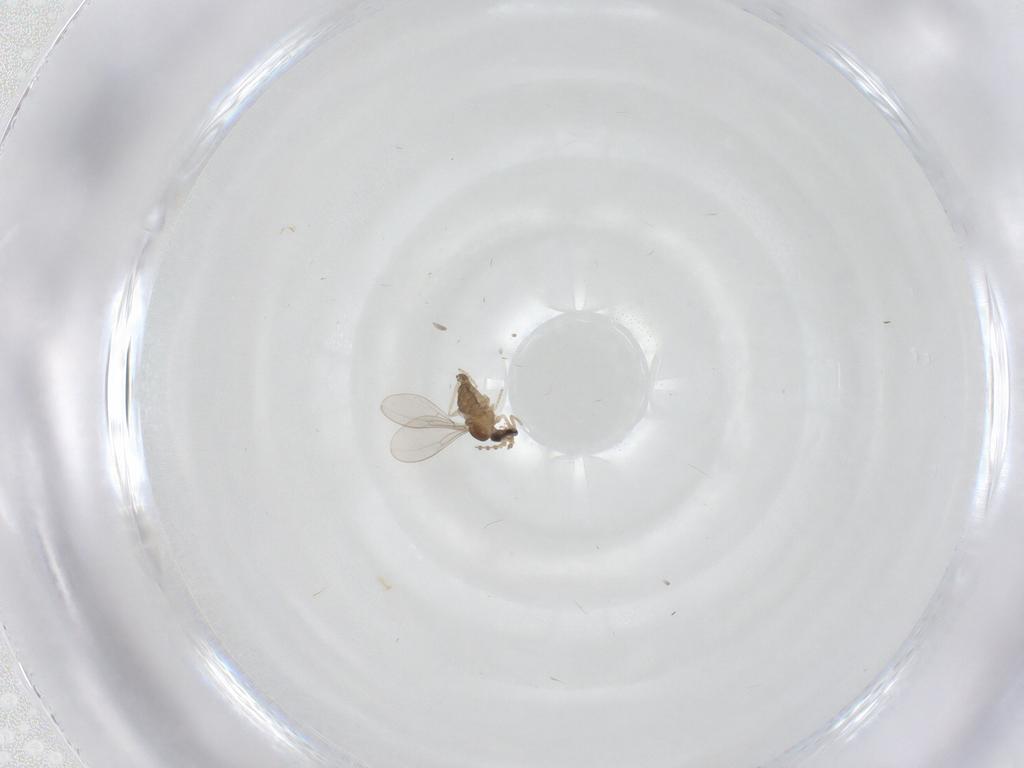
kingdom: Animalia
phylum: Arthropoda
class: Insecta
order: Diptera
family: Cecidomyiidae
